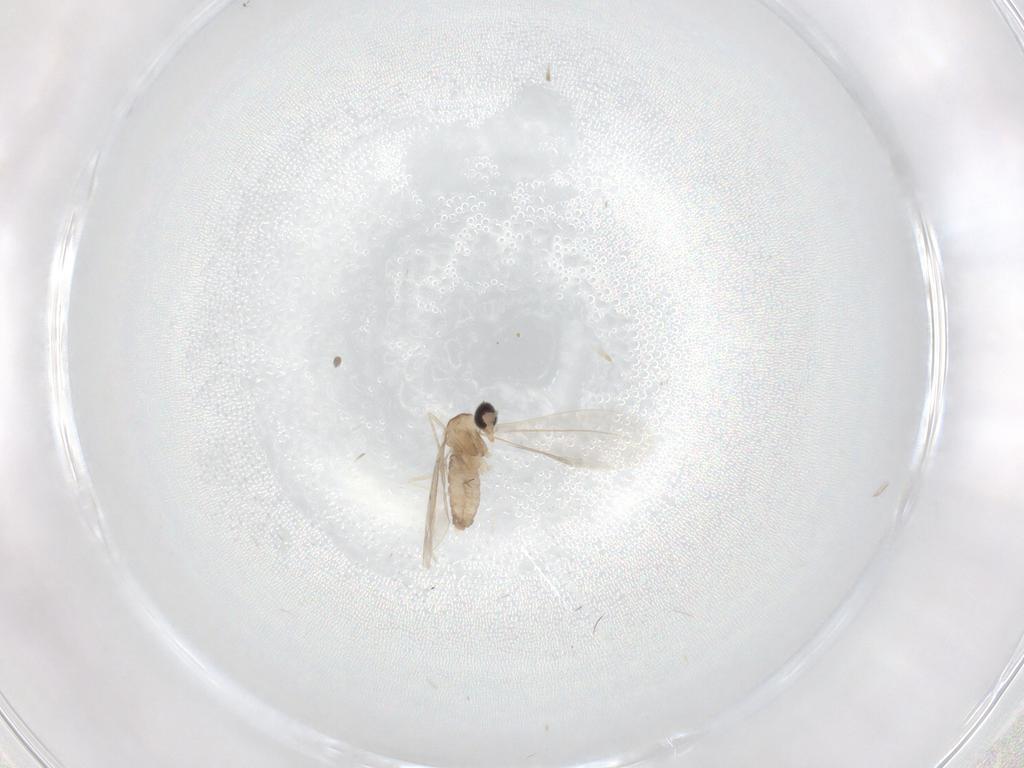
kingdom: Animalia
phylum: Arthropoda
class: Insecta
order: Diptera
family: Cecidomyiidae
